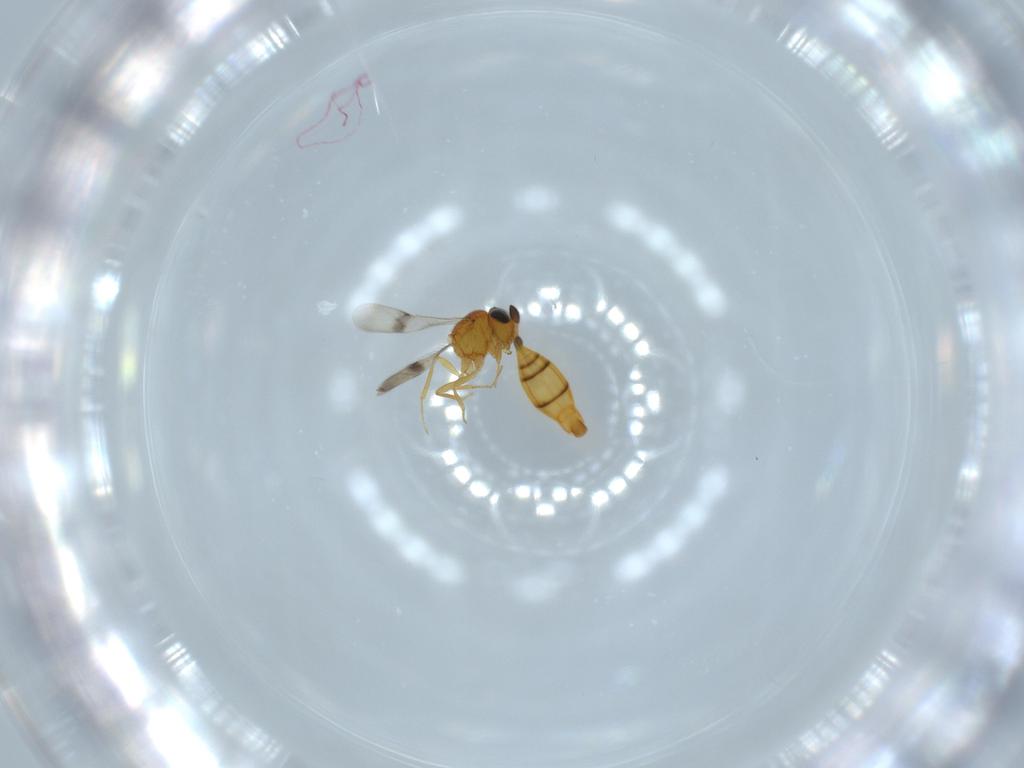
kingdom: Animalia
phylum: Arthropoda
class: Insecta
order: Hymenoptera
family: Scelionidae
